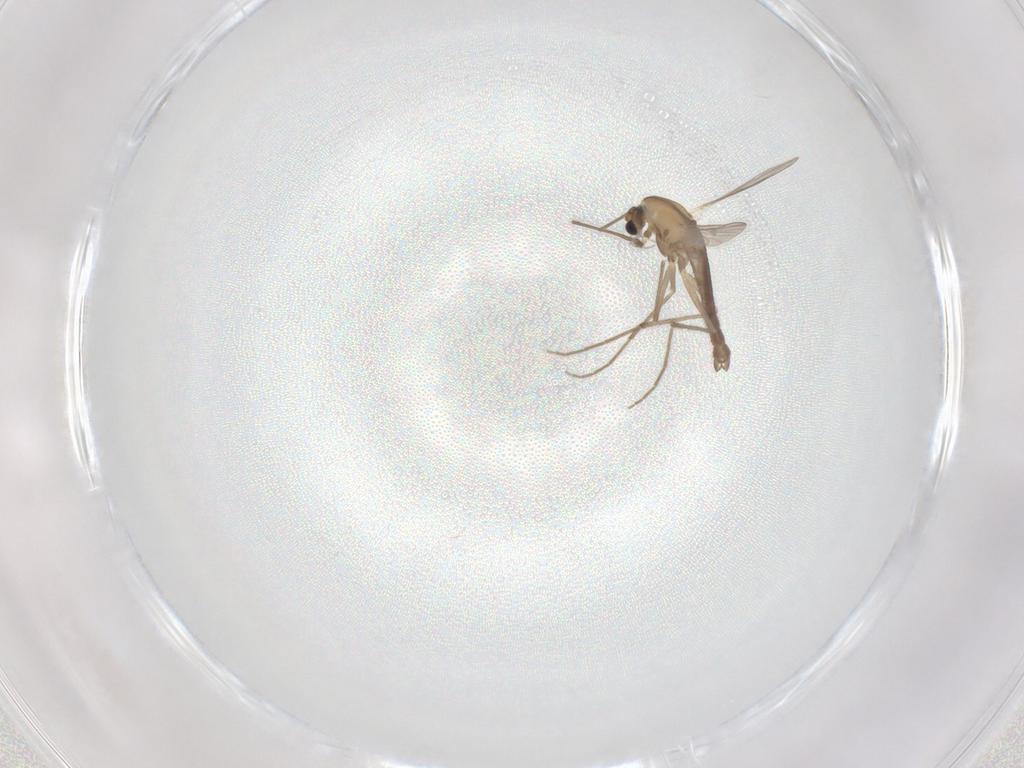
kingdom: Animalia
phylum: Arthropoda
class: Insecta
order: Diptera
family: Chironomidae
